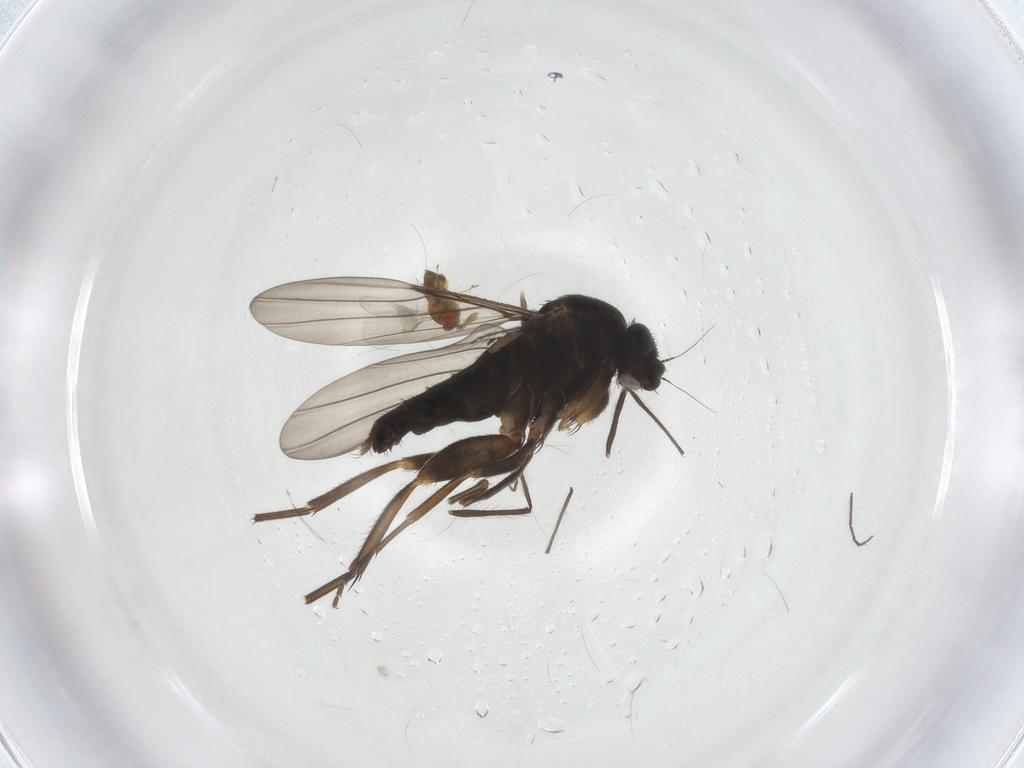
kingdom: Animalia
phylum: Arthropoda
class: Insecta
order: Diptera
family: Phoridae
